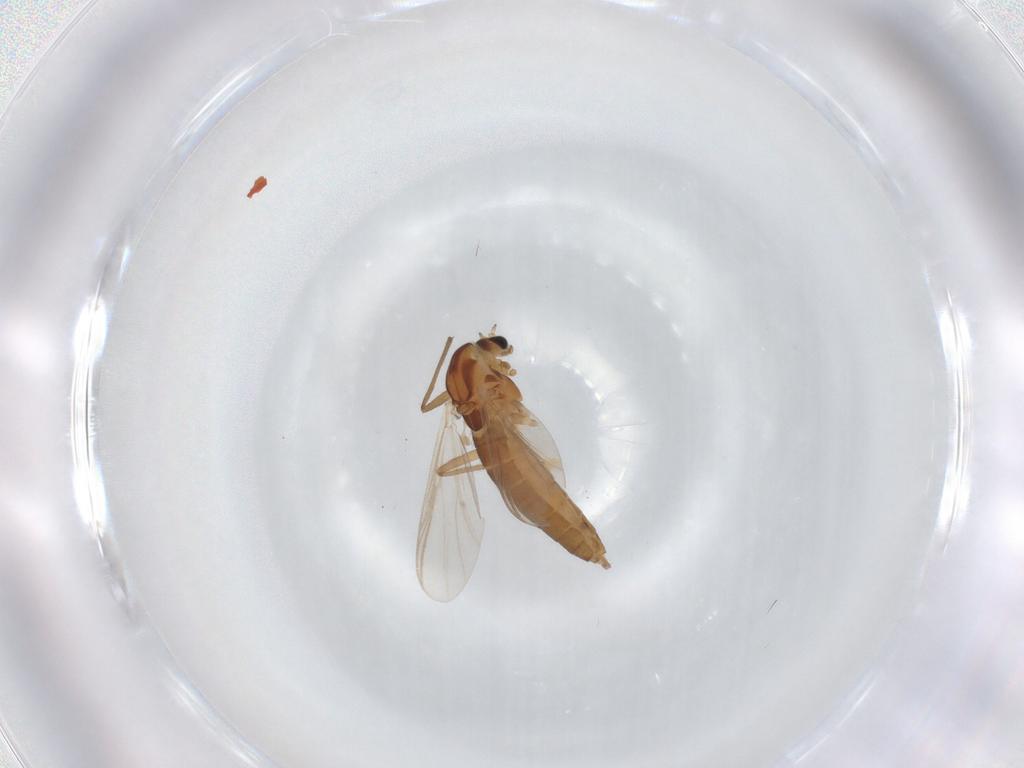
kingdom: Animalia
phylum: Arthropoda
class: Insecta
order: Diptera
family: Chironomidae
